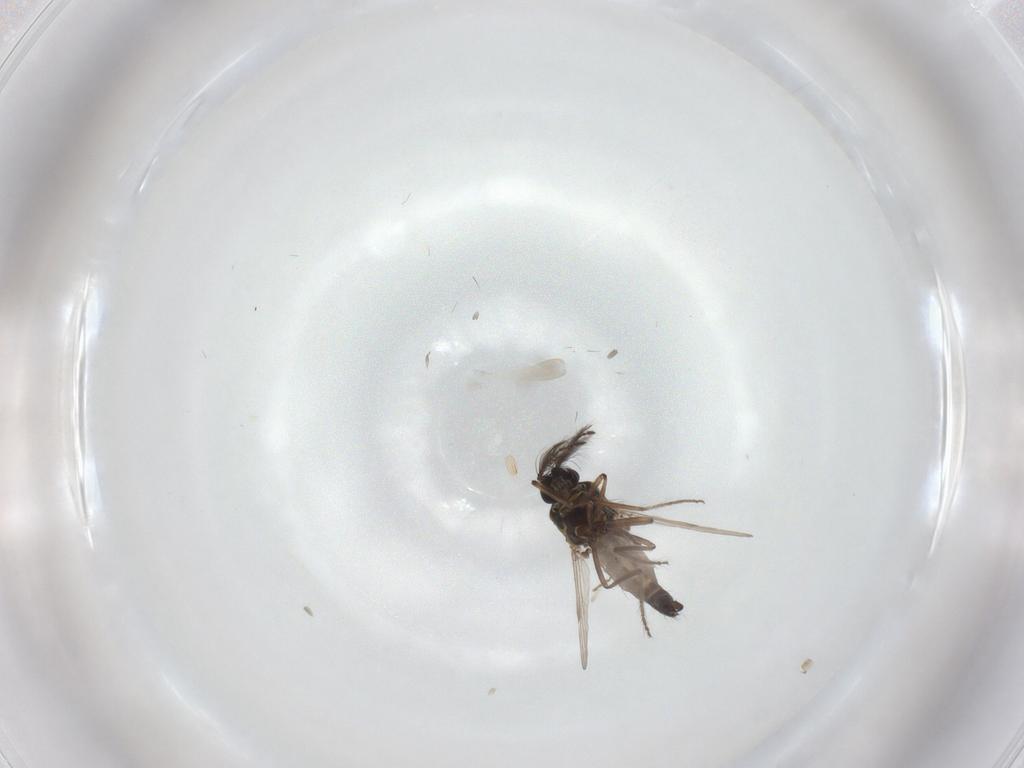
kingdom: Animalia
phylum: Arthropoda
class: Insecta
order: Diptera
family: Ceratopogonidae
